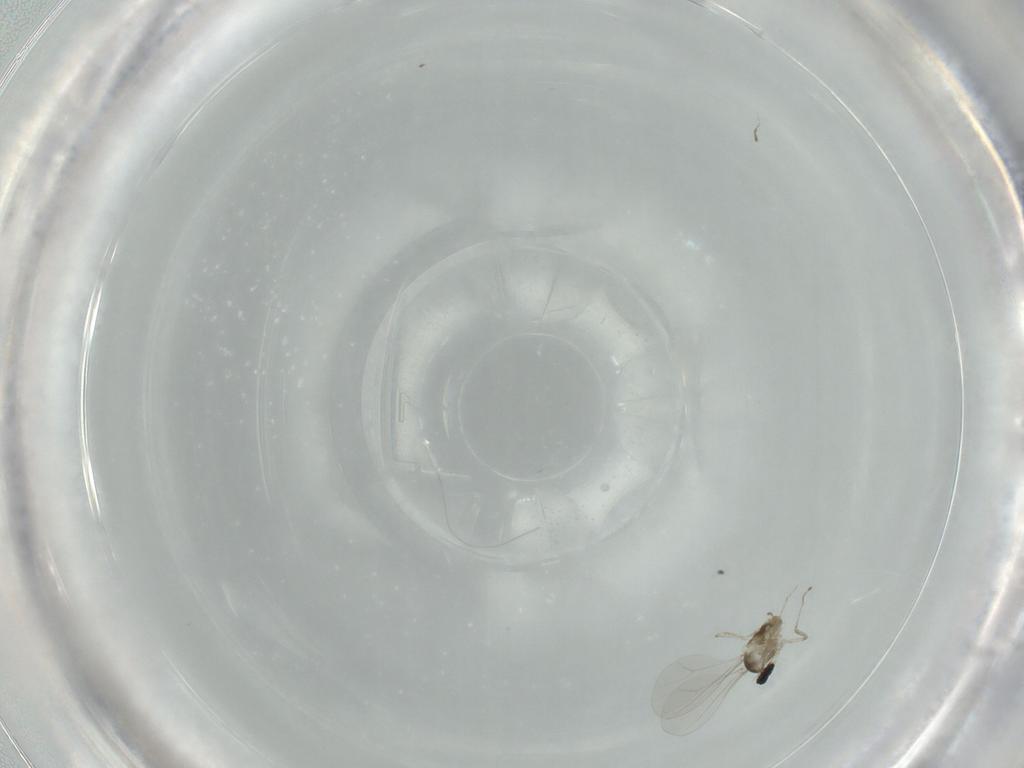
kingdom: Animalia
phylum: Arthropoda
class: Insecta
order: Diptera
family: Cecidomyiidae
